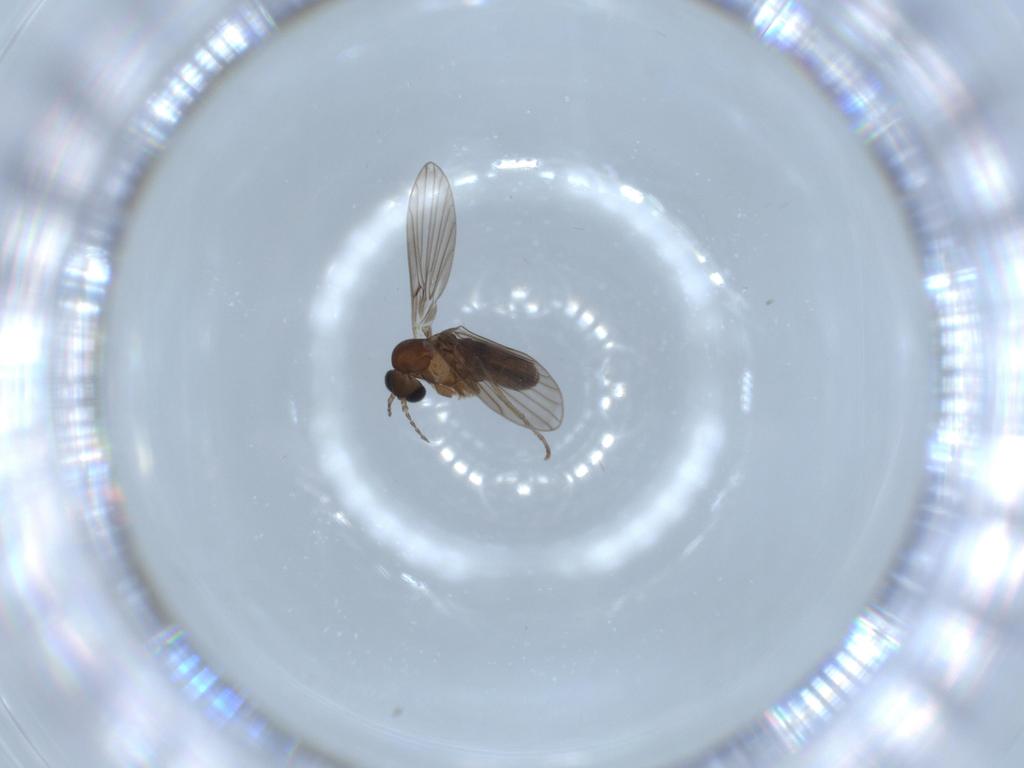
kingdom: Animalia
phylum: Arthropoda
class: Insecta
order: Diptera
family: Psychodidae
